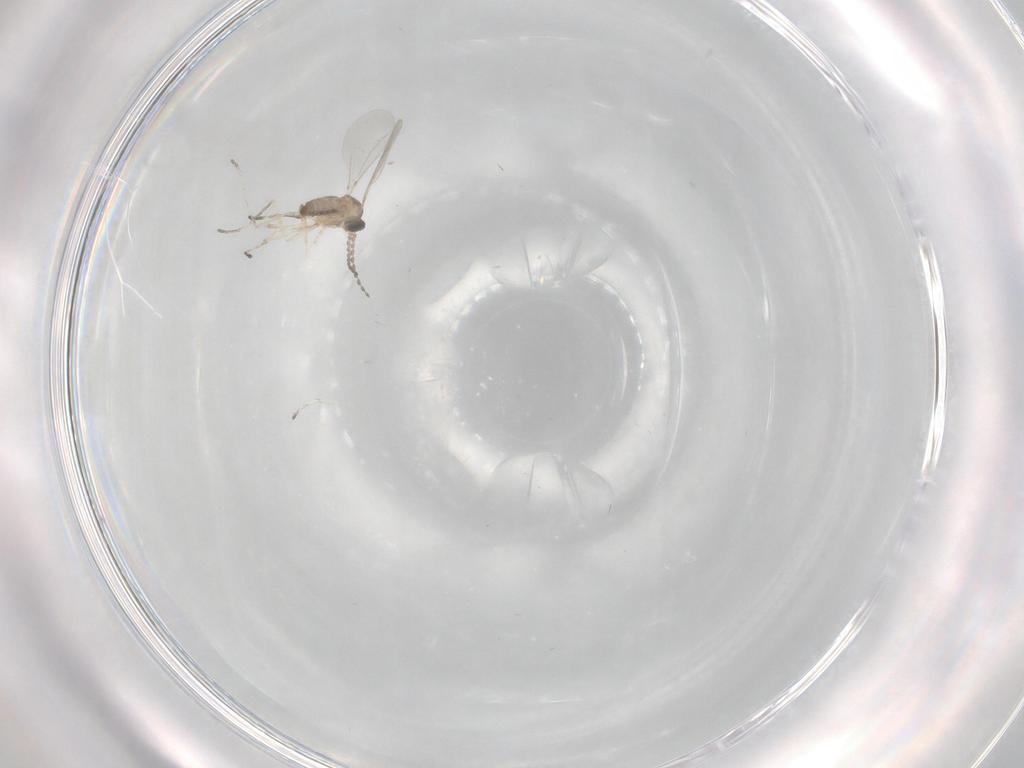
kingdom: Animalia
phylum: Arthropoda
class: Insecta
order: Diptera
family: Cecidomyiidae
